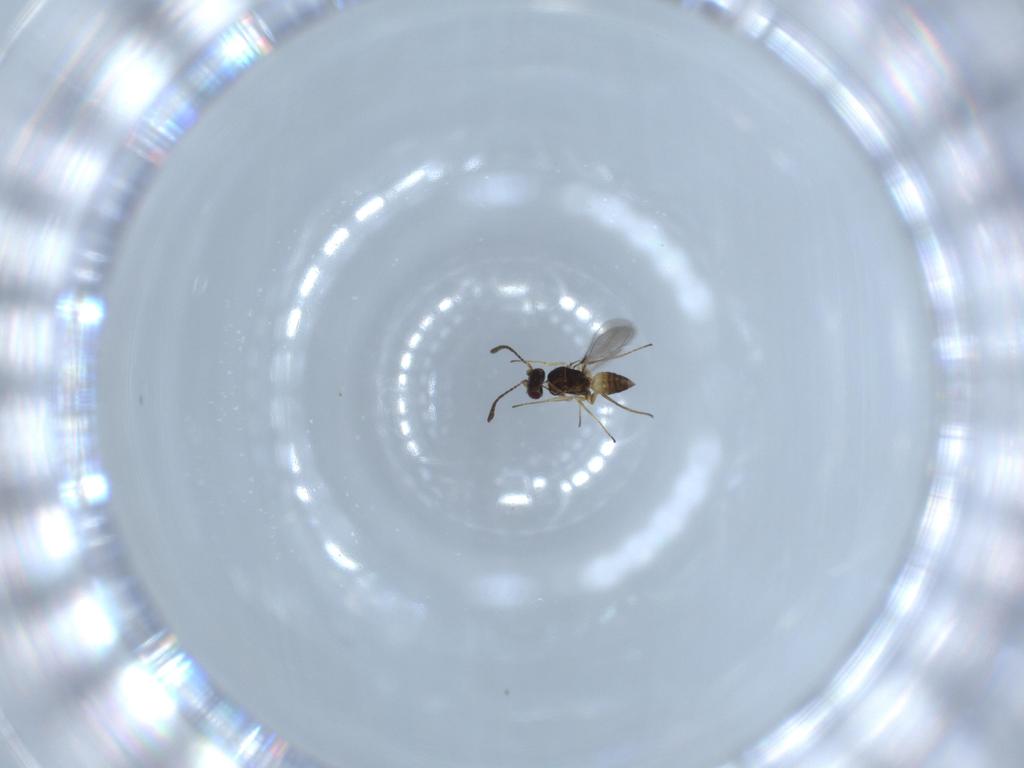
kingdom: Animalia
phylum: Arthropoda
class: Insecta
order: Hymenoptera
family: Mymaridae
